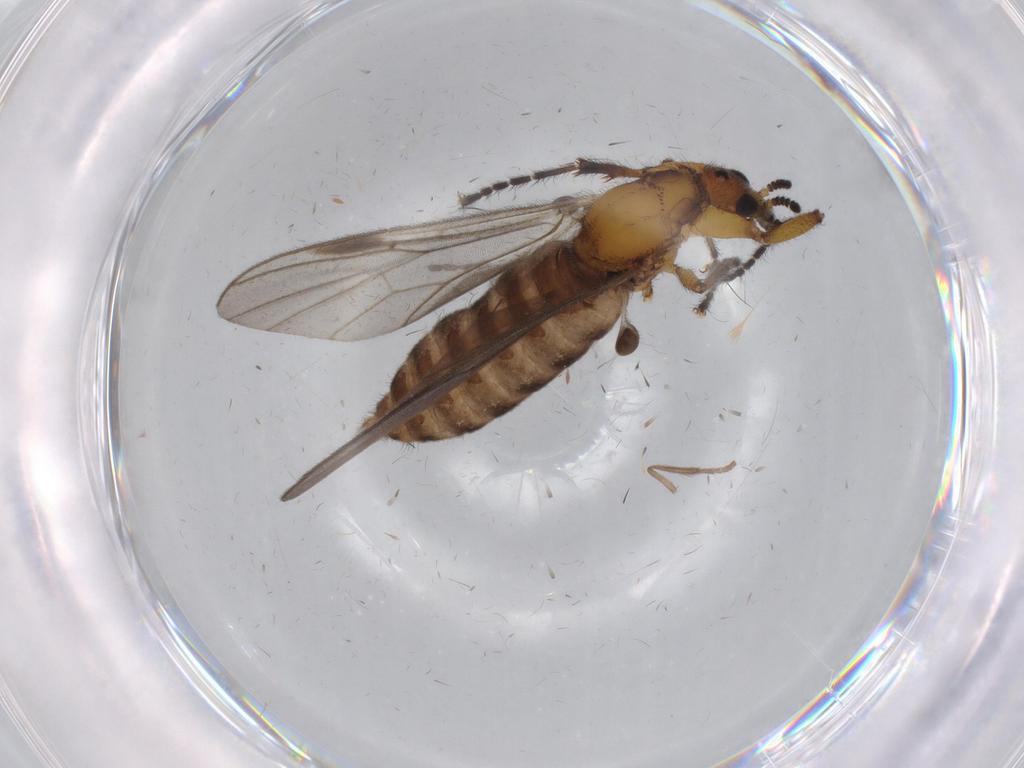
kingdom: Animalia
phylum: Arthropoda
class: Insecta
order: Diptera
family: Bibionidae
